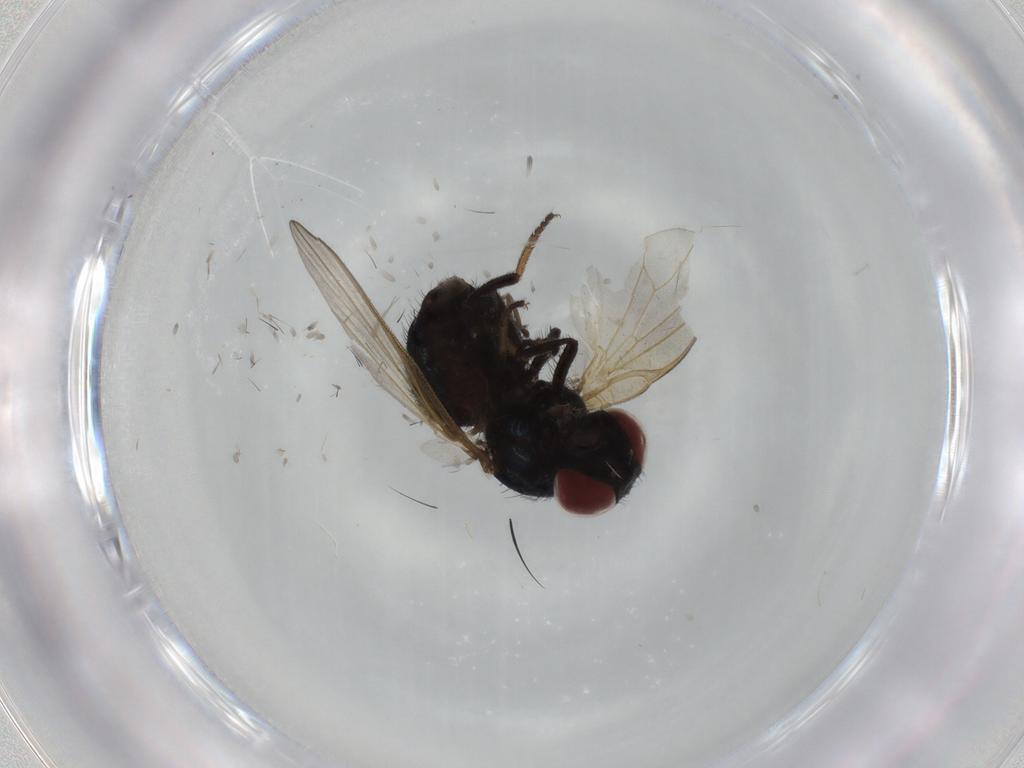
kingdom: Animalia
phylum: Arthropoda
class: Insecta
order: Diptera
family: Lonchaeidae
